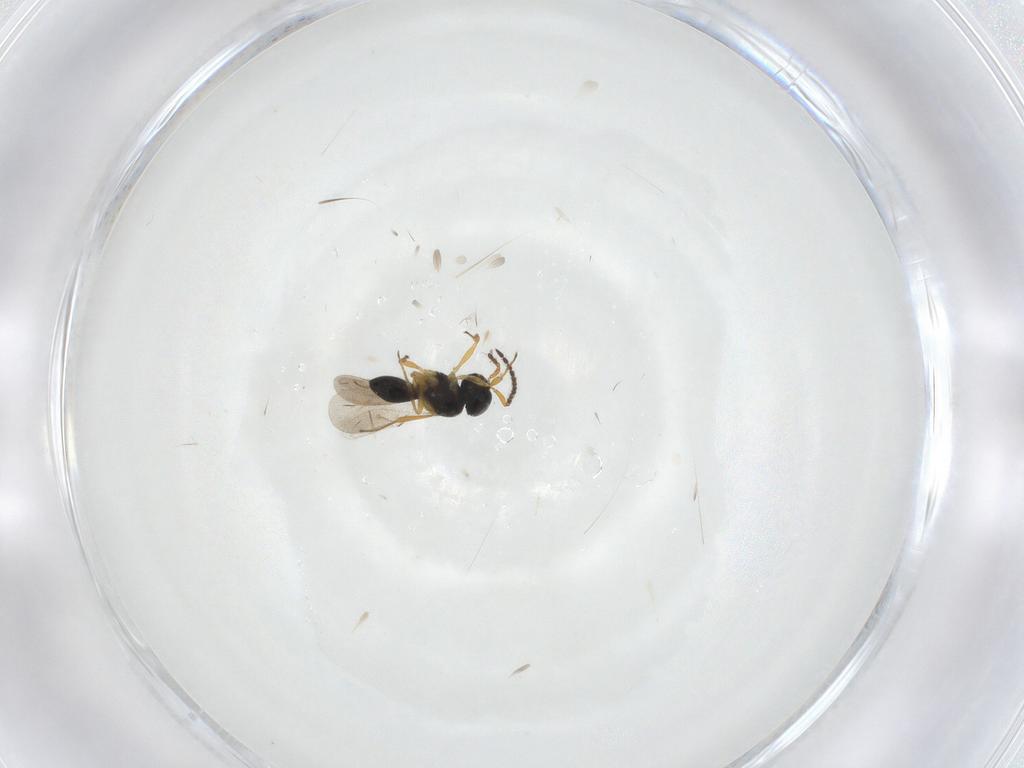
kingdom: Animalia
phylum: Arthropoda
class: Insecta
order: Hymenoptera
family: Scelionidae
